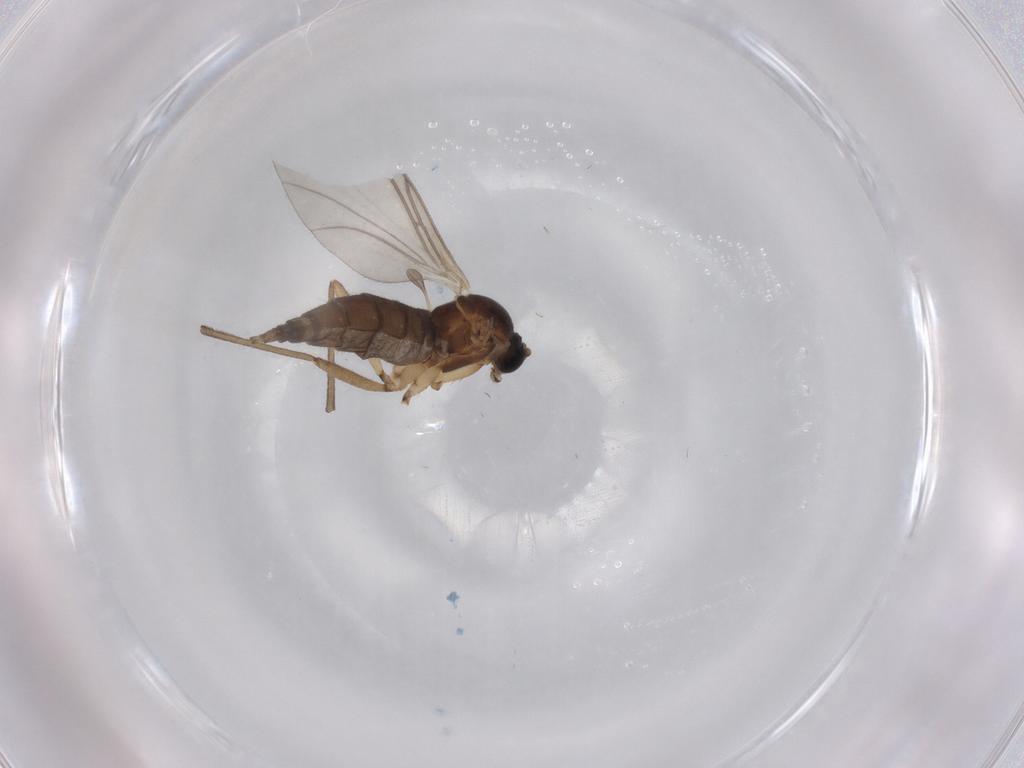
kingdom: Animalia
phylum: Arthropoda
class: Insecta
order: Diptera
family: Sciaridae
